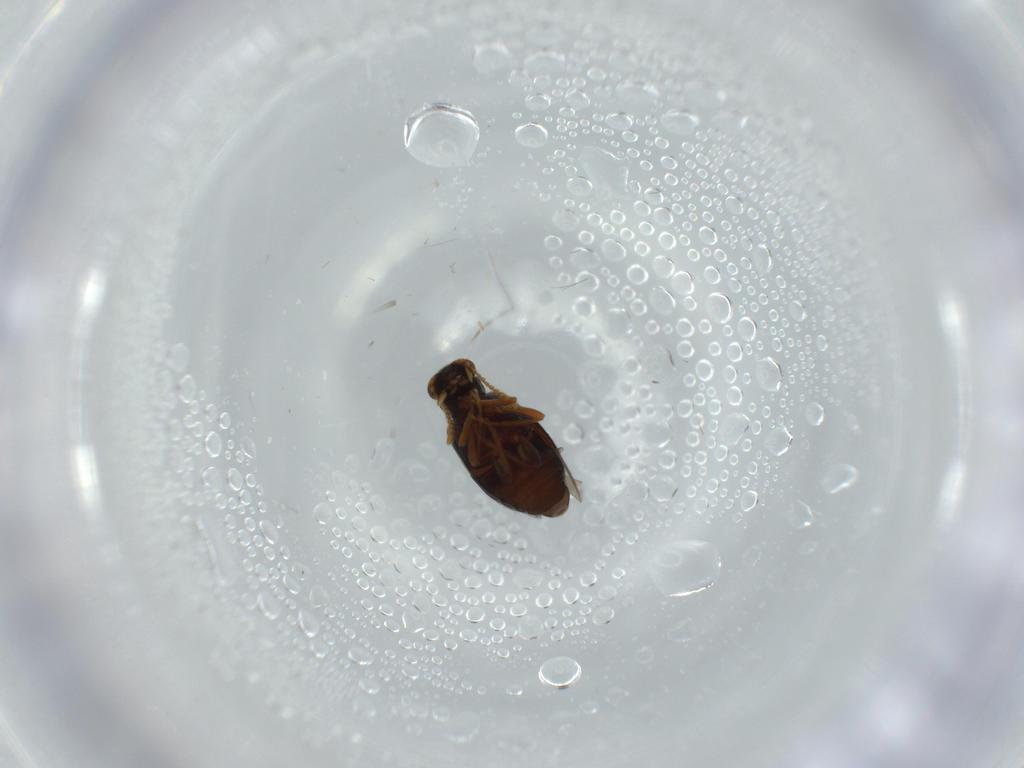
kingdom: Animalia
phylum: Arthropoda
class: Insecta
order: Coleoptera
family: Aderidae
